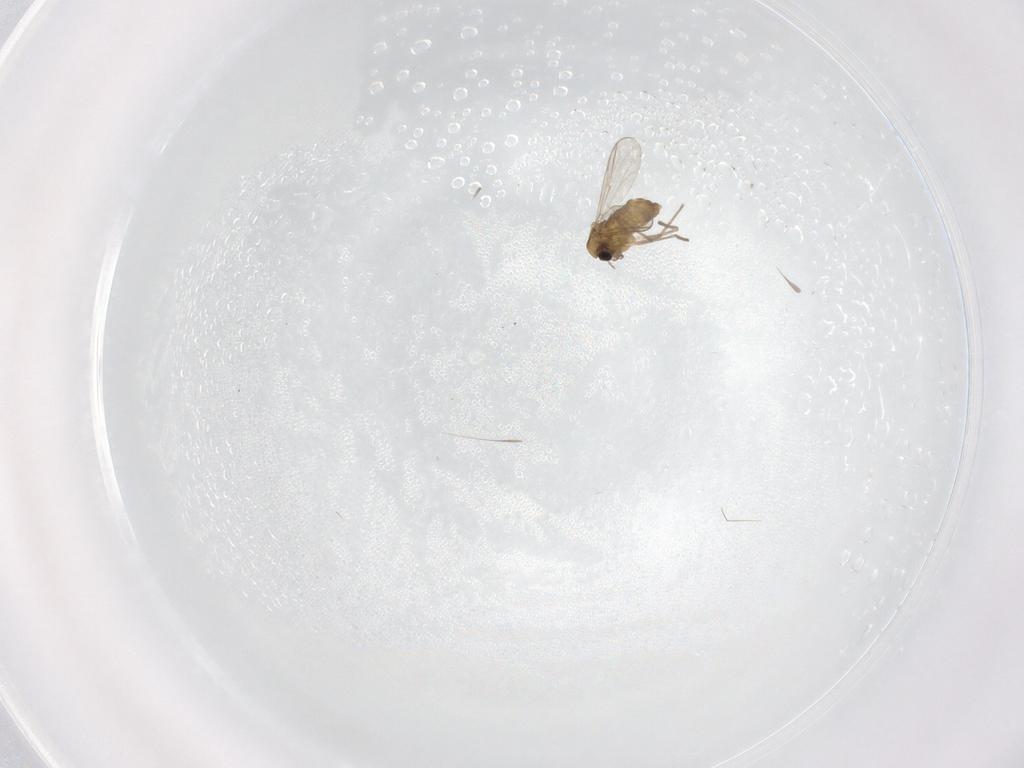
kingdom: Animalia
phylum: Arthropoda
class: Insecta
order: Diptera
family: Chironomidae
